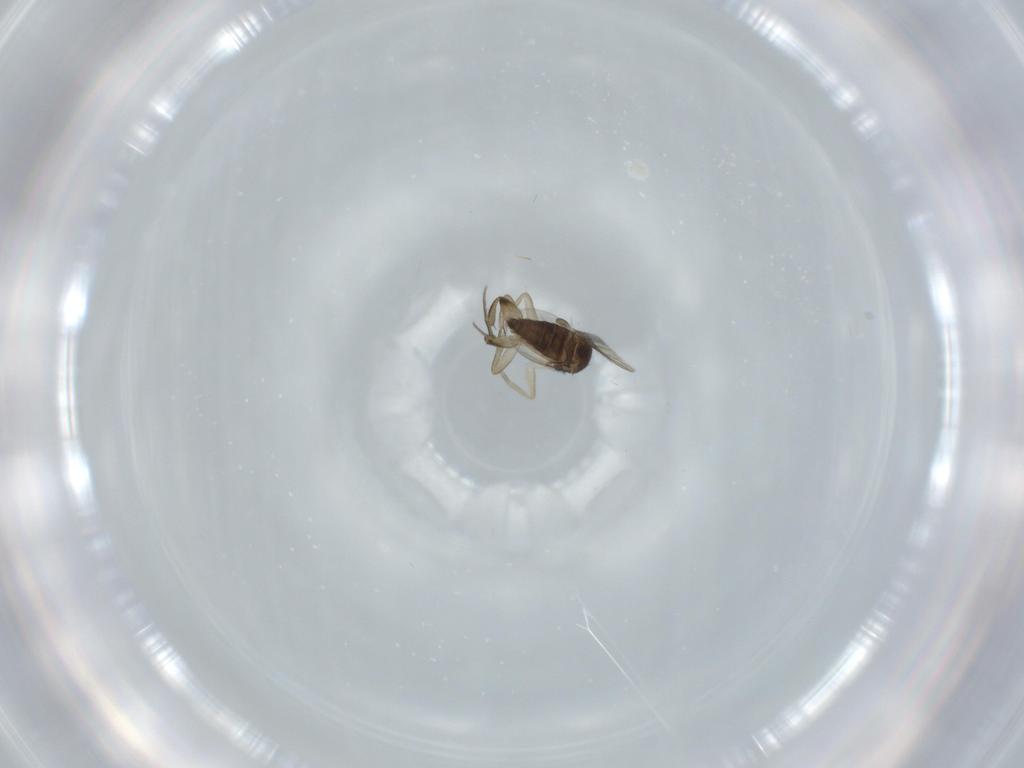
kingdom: Animalia
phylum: Arthropoda
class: Insecta
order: Diptera
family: Phoridae
